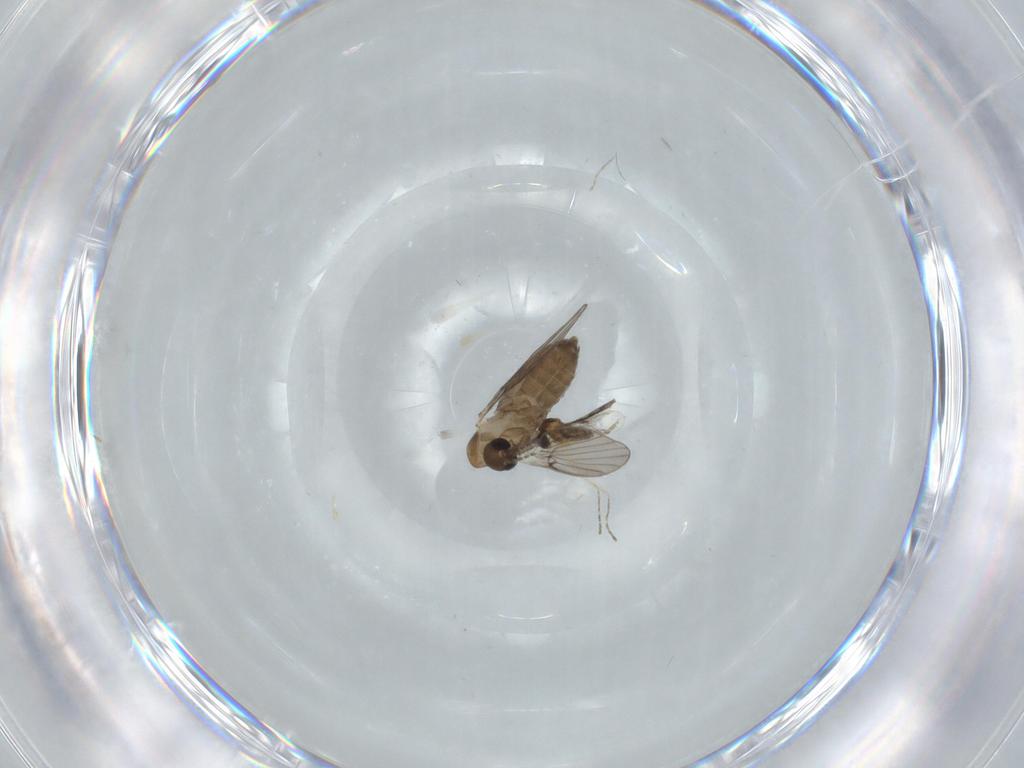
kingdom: Animalia
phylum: Arthropoda
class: Insecta
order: Diptera
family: Cecidomyiidae
